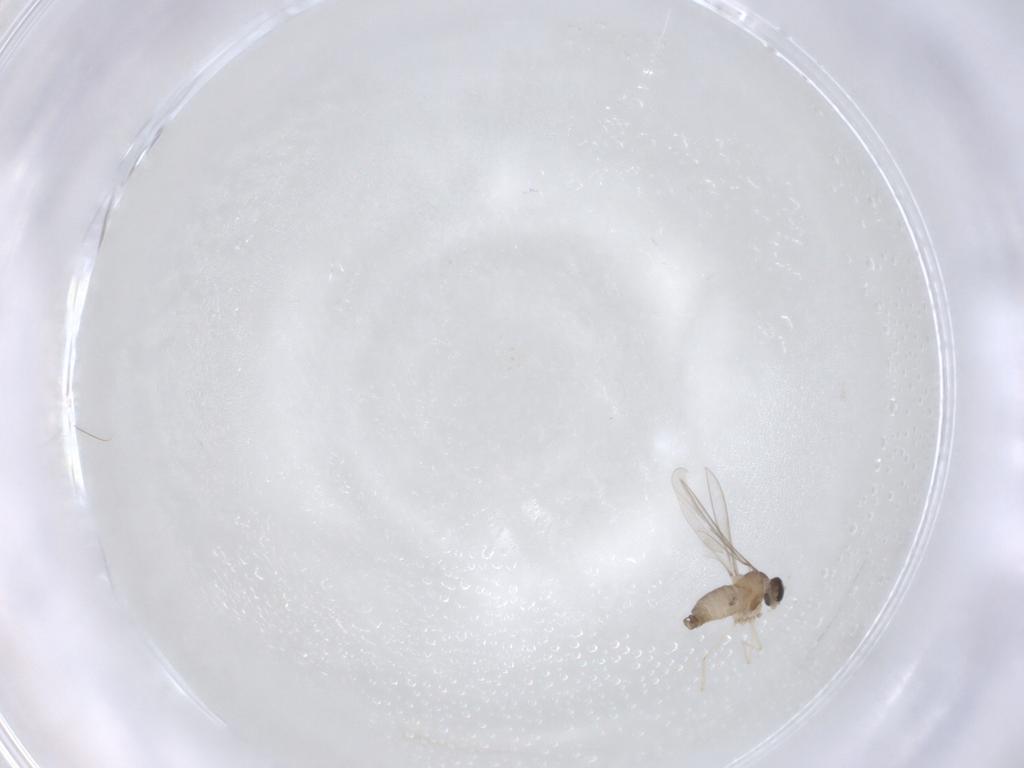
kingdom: Animalia
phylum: Arthropoda
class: Insecta
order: Diptera
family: Cecidomyiidae
